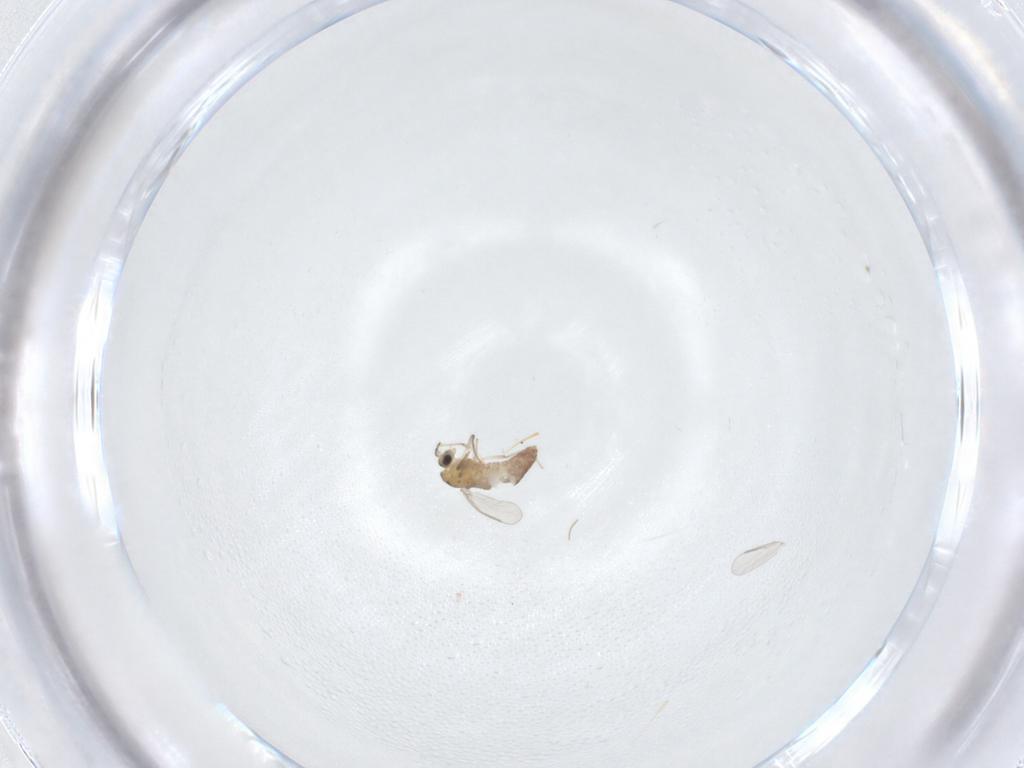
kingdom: Animalia
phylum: Arthropoda
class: Insecta
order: Diptera
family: Chironomidae
